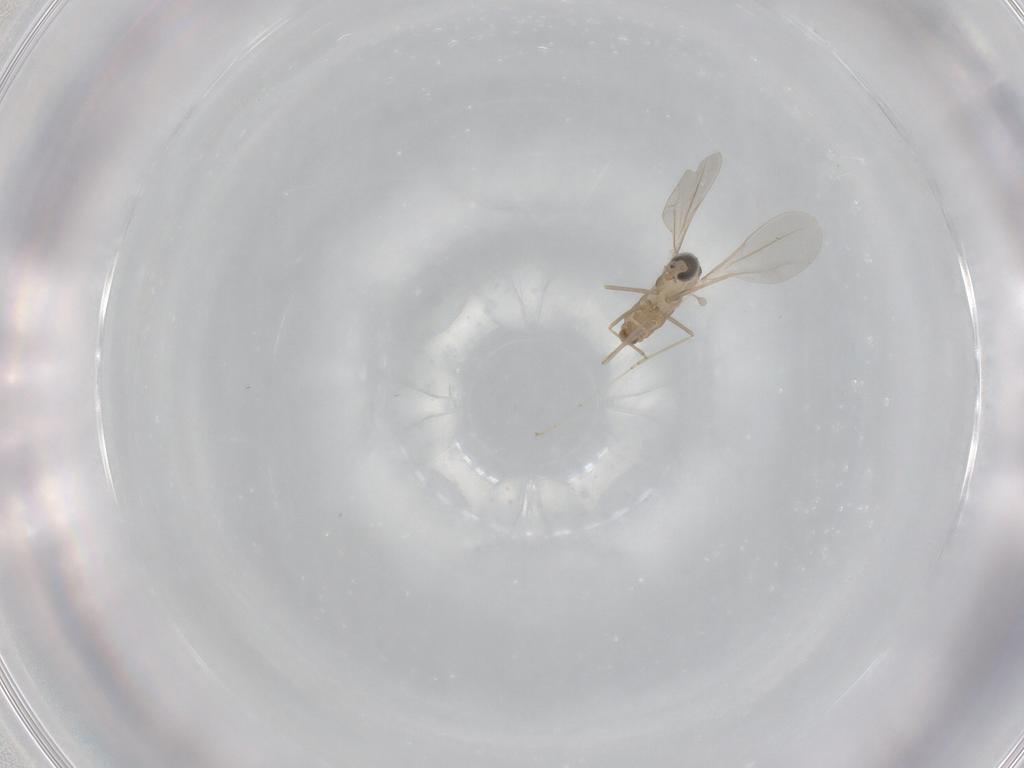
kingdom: Animalia
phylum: Arthropoda
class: Insecta
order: Diptera
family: Cecidomyiidae
